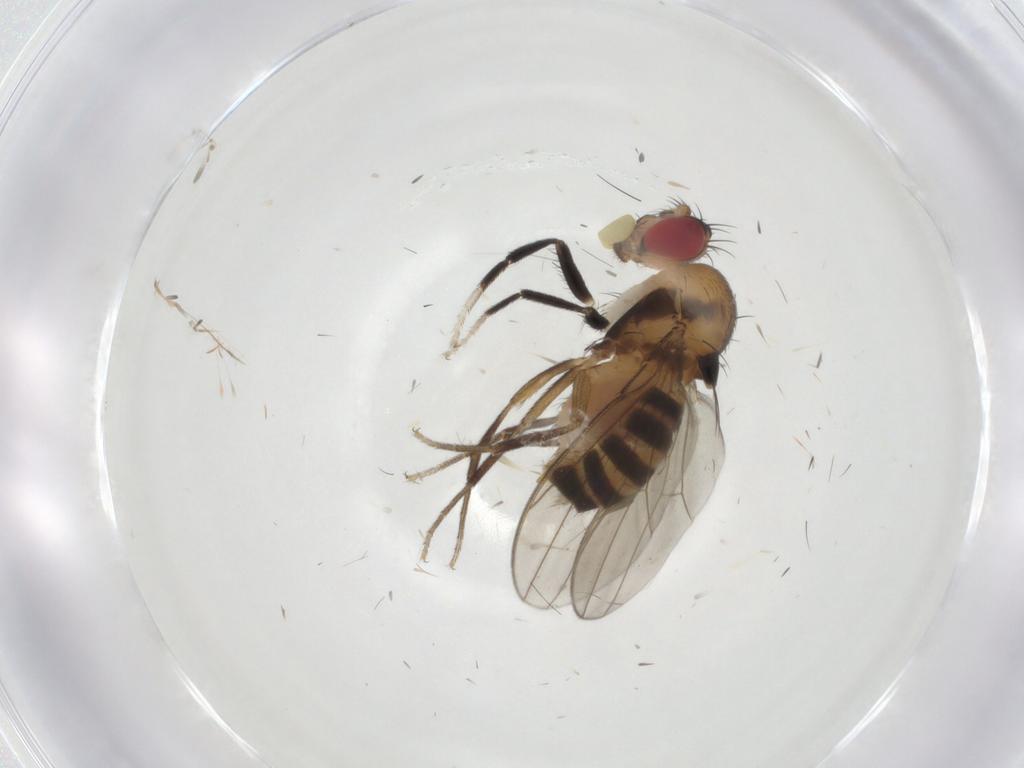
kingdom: Animalia
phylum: Arthropoda
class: Insecta
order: Diptera
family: Drosophilidae
